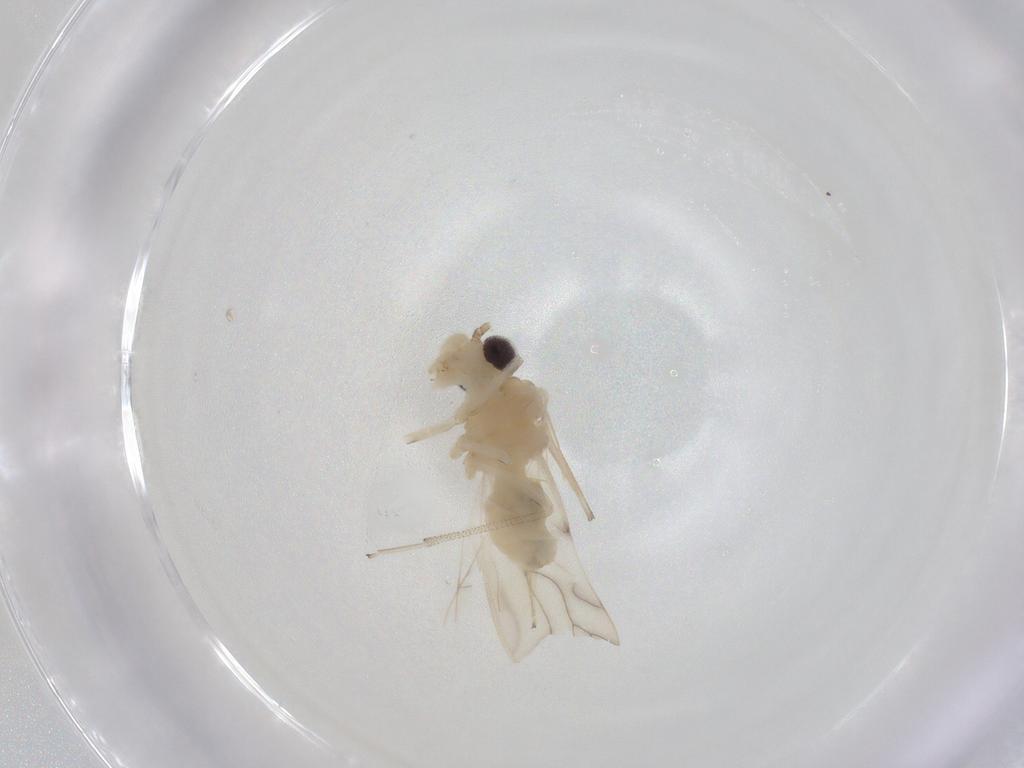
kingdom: Animalia
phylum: Arthropoda
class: Insecta
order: Psocodea
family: Caeciliusidae
